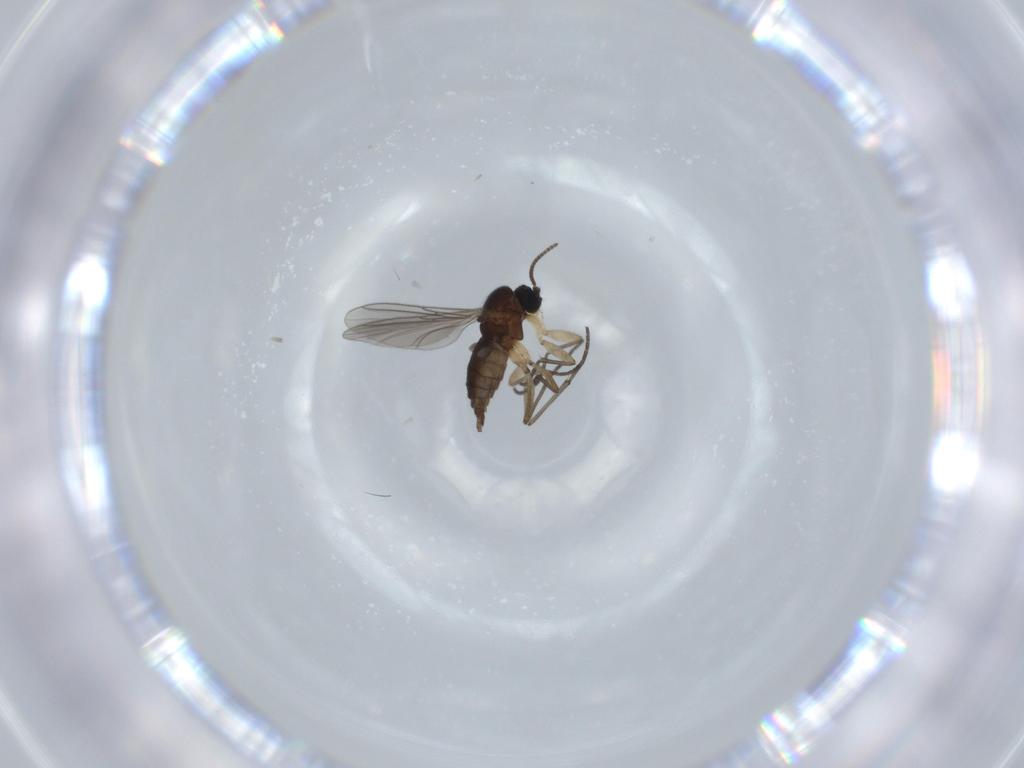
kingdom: Animalia
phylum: Arthropoda
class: Insecta
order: Diptera
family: Sciaridae
